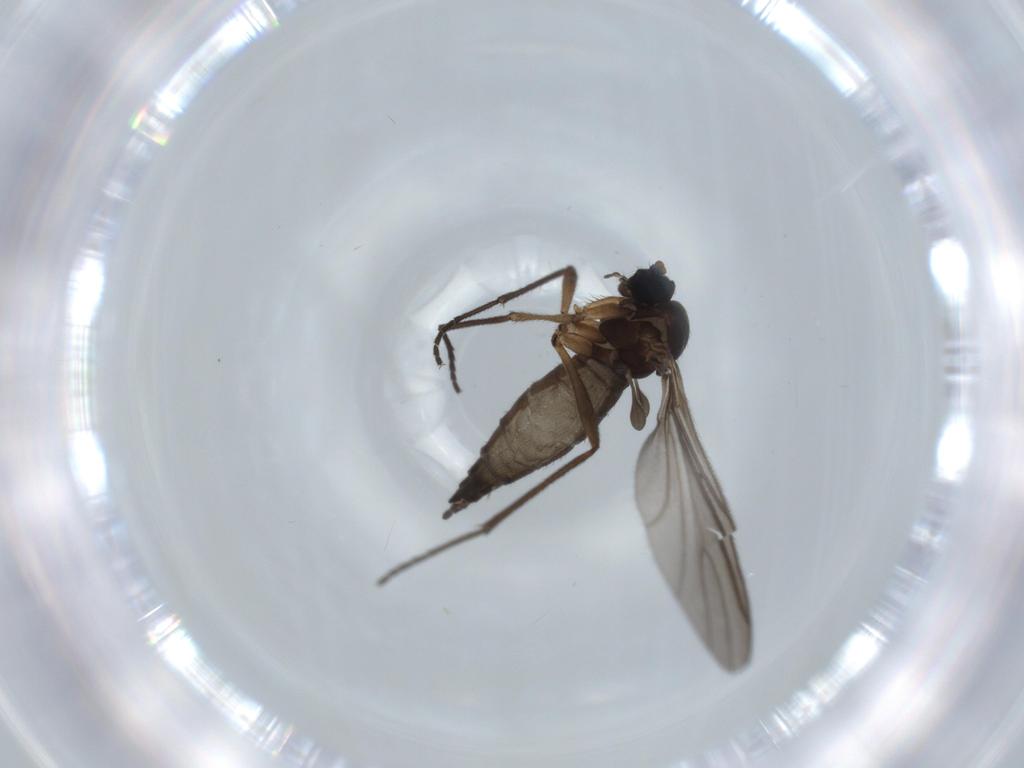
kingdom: Animalia
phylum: Arthropoda
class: Insecta
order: Diptera
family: Sciaridae
